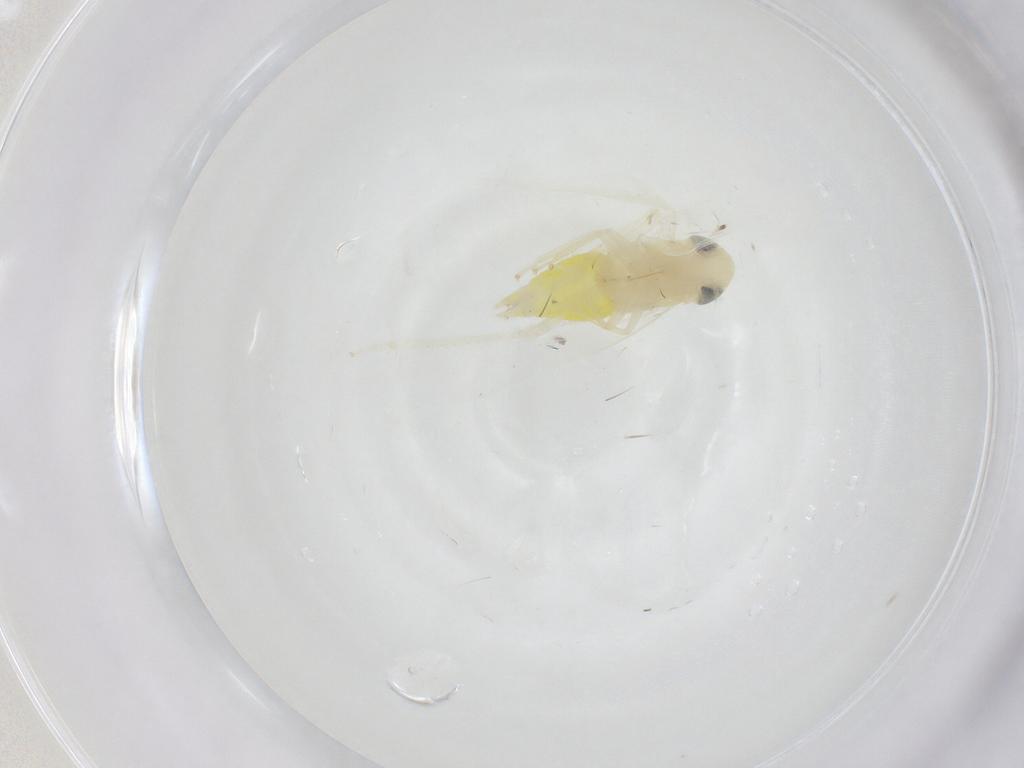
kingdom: Animalia
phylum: Arthropoda
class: Insecta
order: Hemiptera
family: Cicadellidae
